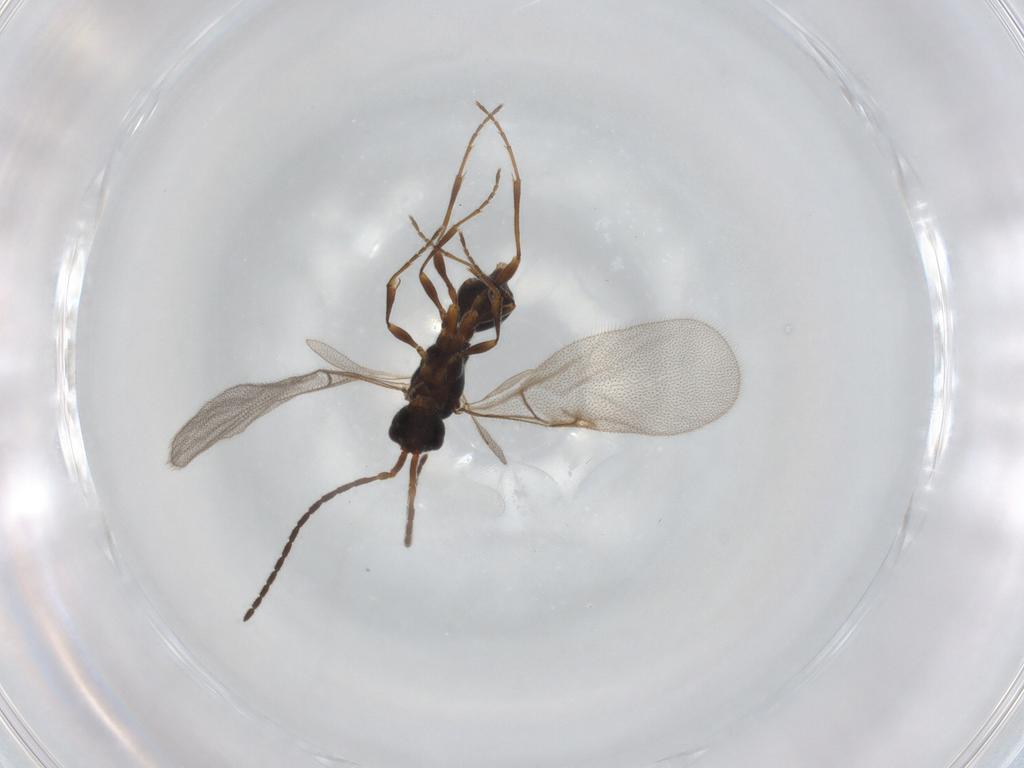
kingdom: Animalia
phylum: Arthropoda
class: Insecta
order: Hymenoptera
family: Diapriidae
